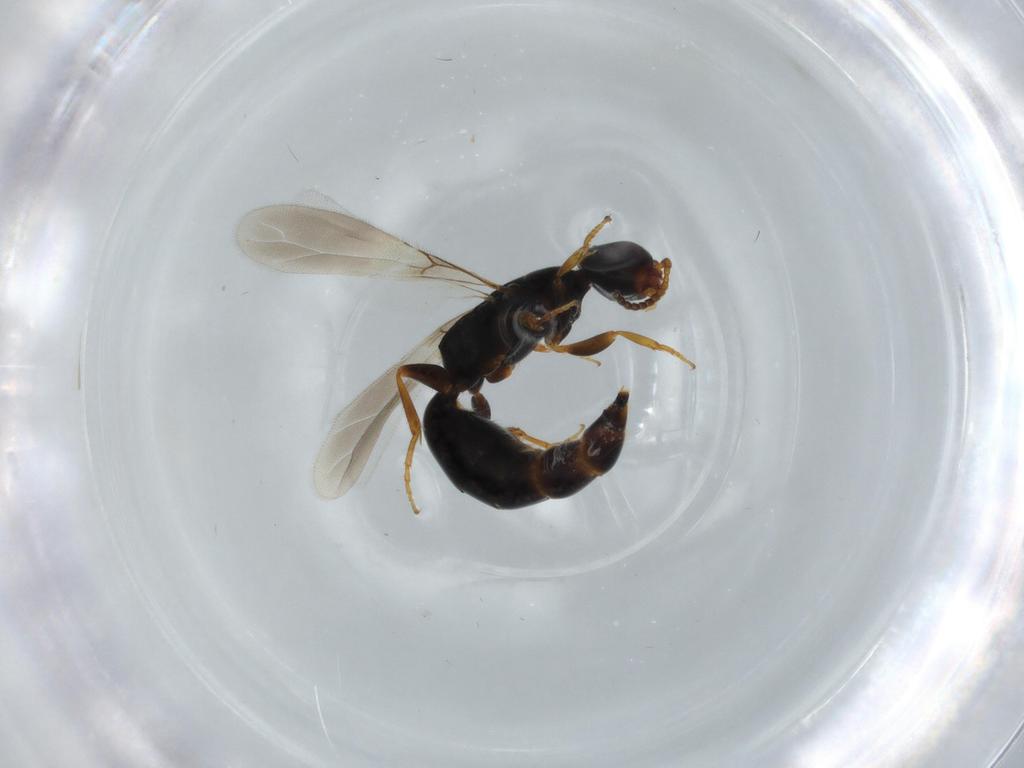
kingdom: Animalia
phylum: Arthropoda
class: Insecta
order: Hymenoptera
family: Bethylidae
